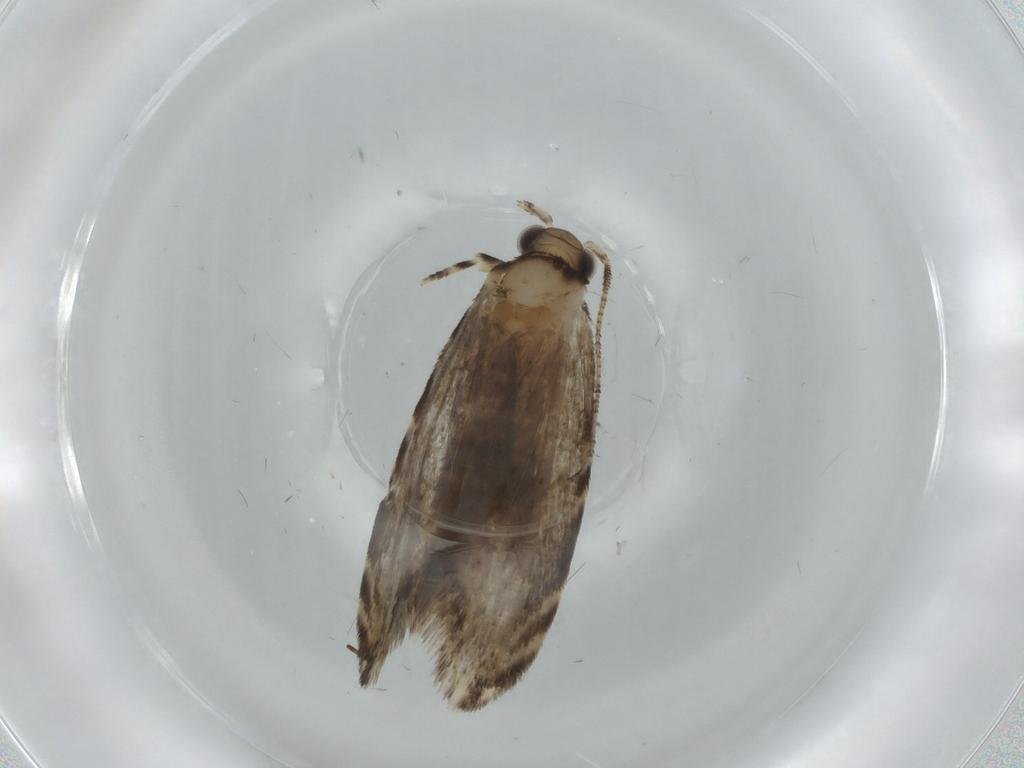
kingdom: Animalia
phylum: Arthropoda
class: Insecta
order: Lepidoptera
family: Tineidae
